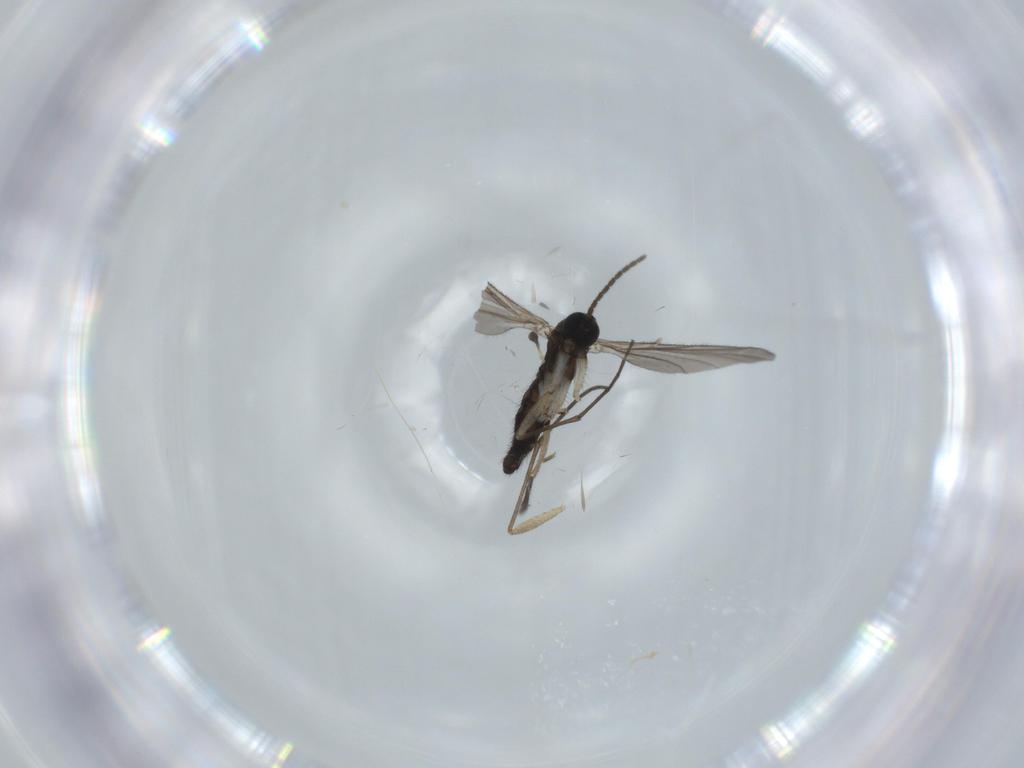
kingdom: Animalia
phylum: Arthropoda
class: Insecta
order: Diptera
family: Sciaridae
